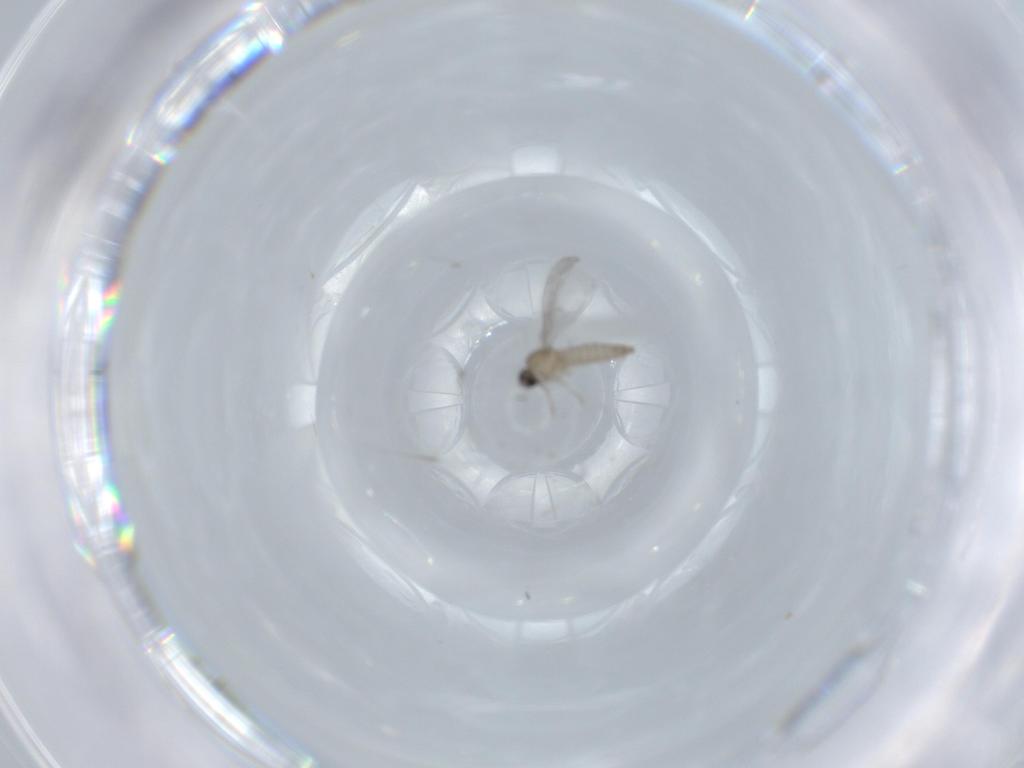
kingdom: Animalia
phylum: Arthropoda
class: Insecta
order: Diptera
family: Cecidomyiidae
